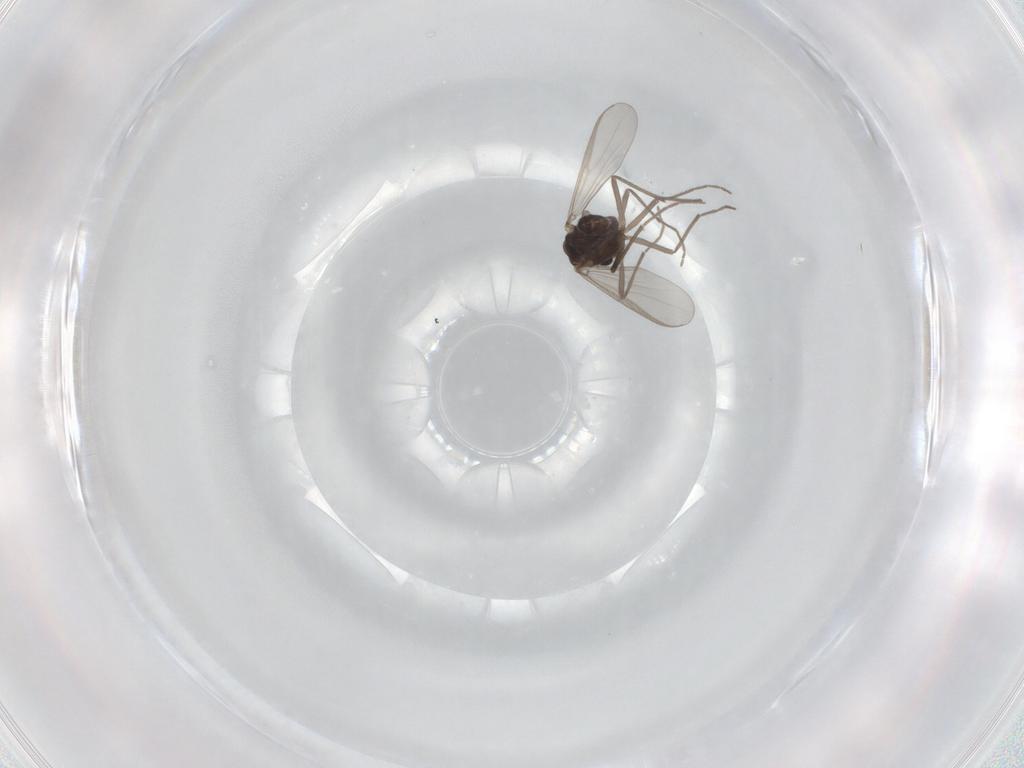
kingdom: Animalia
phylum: Arthropoda
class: Insecta
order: Diptera
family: Chironomidae
